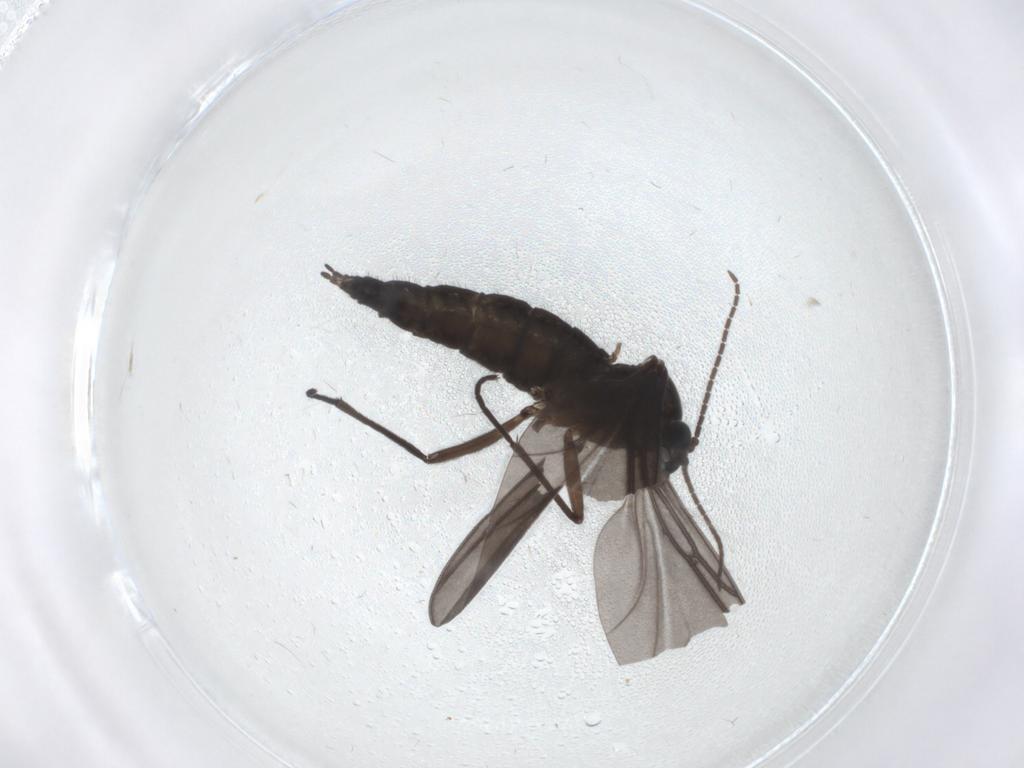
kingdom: Animalia
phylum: Arthropoda
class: Insecta
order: Diptera
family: Sciaridae
